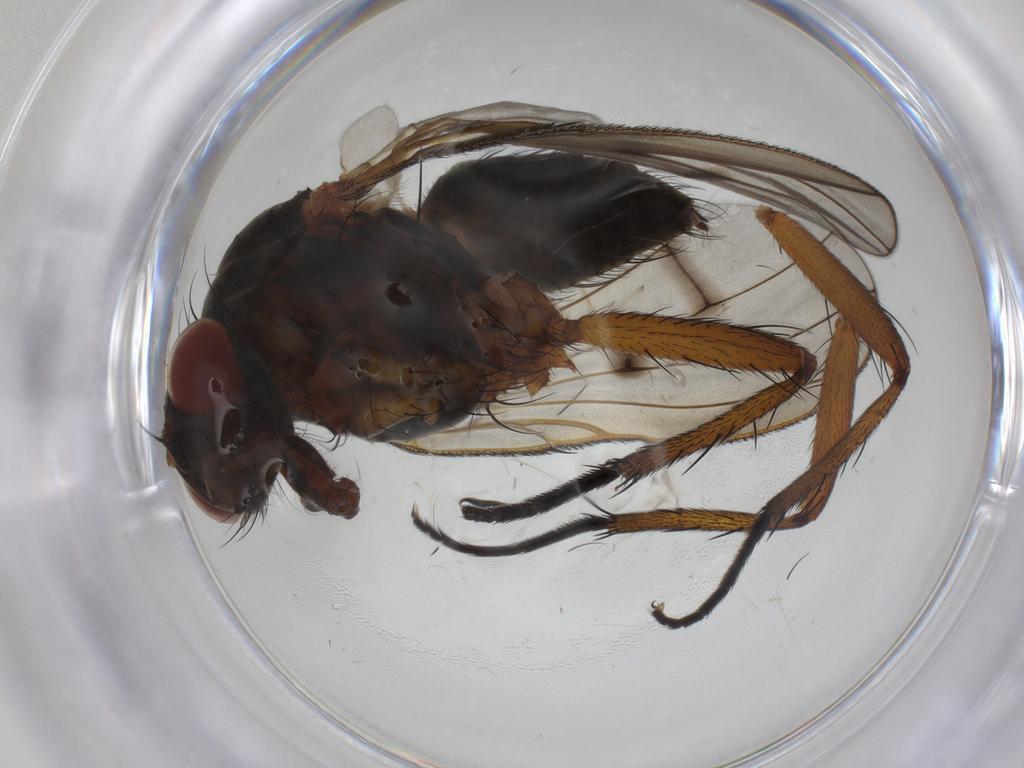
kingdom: Animalia
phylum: Arthropoda
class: Insecta
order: Diptera
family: Anthomyiidae
